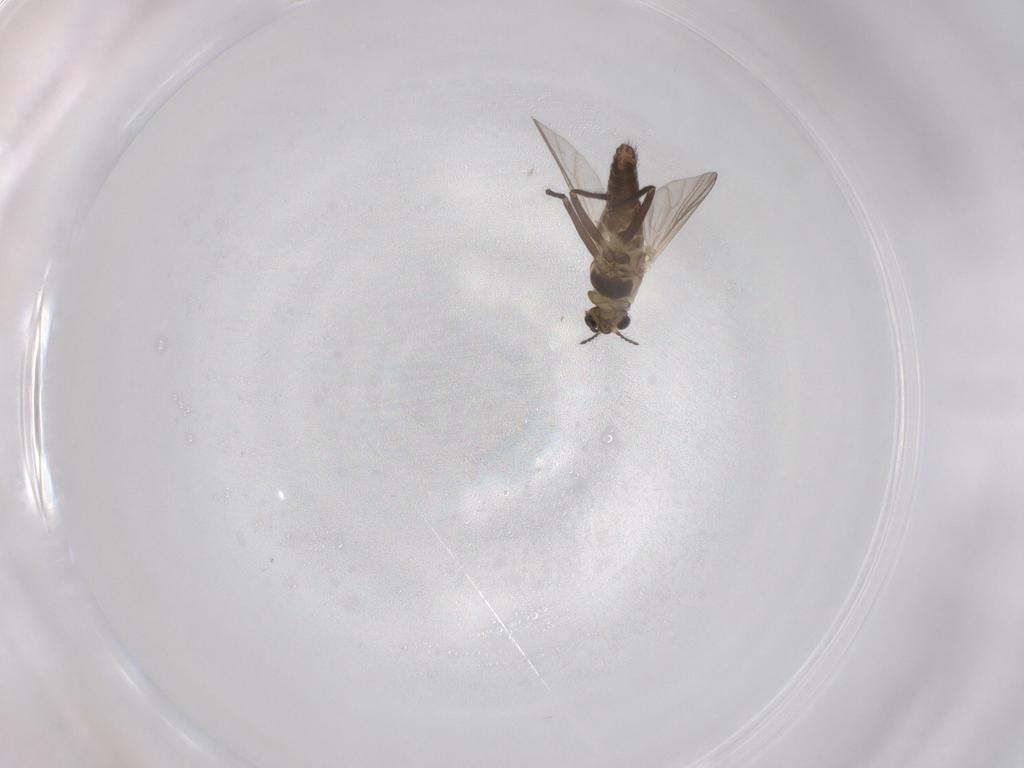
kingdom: Animalia
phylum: Arthropoda
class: Insecta
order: Diptera
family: Chironomidae
